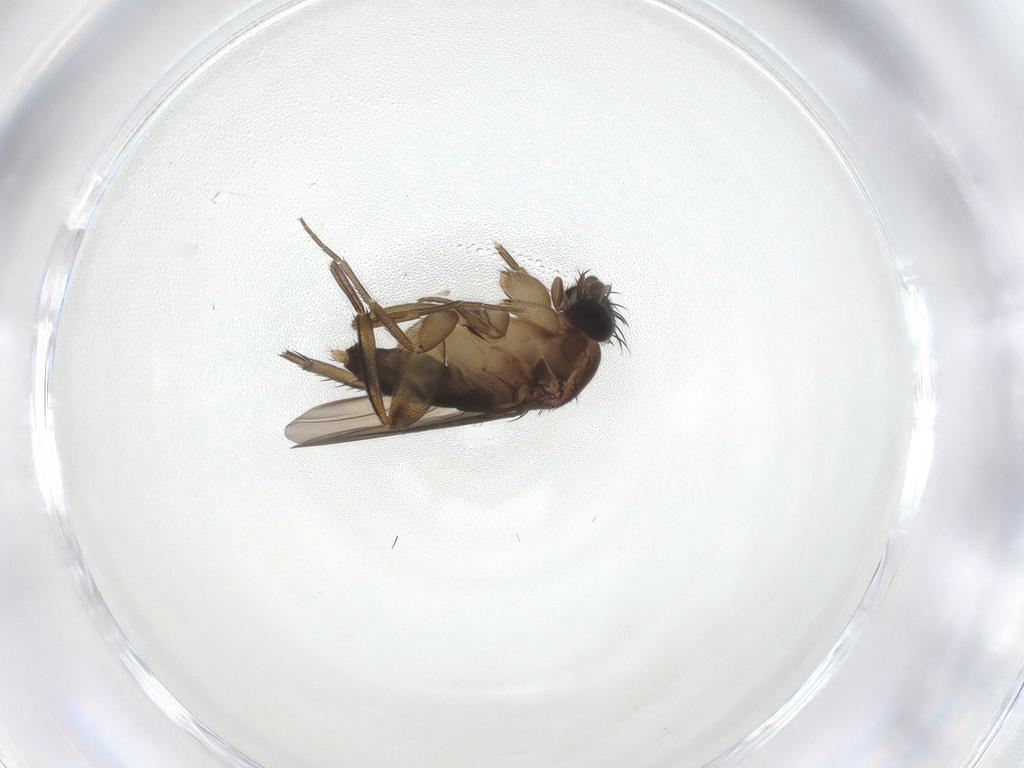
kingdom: Animalia
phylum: Arthropoda
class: Insecta
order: Diptera
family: Phoridae
